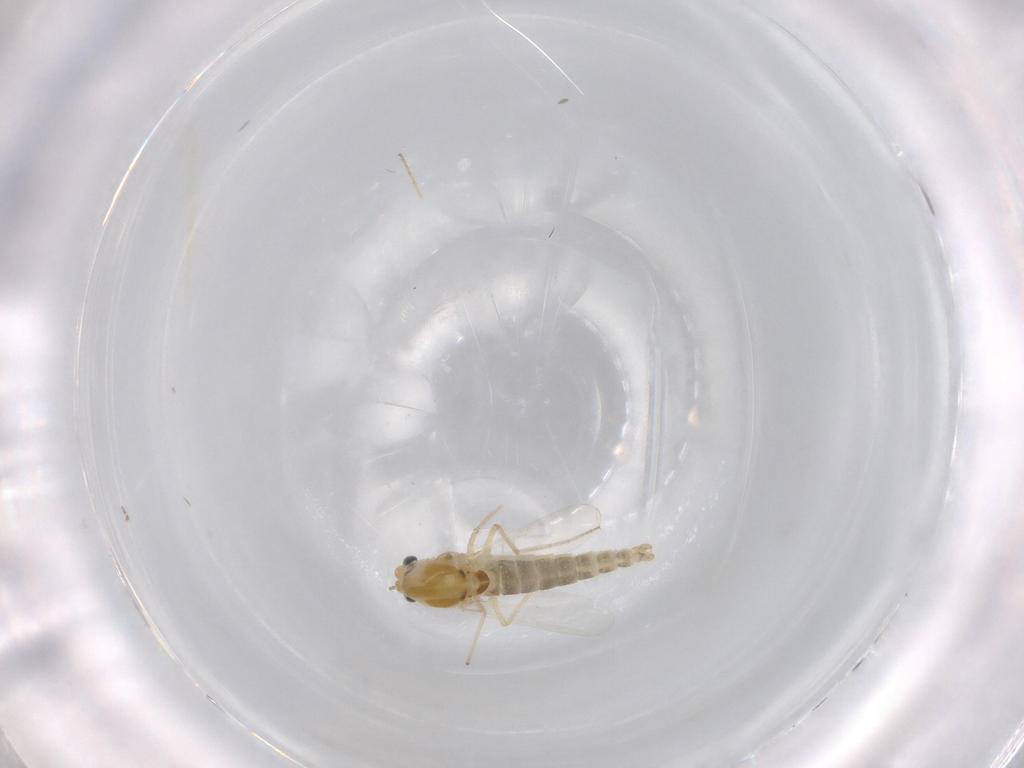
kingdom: Animalia
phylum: Arthropoda
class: Insecta
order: Diptera
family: Chironomidae
